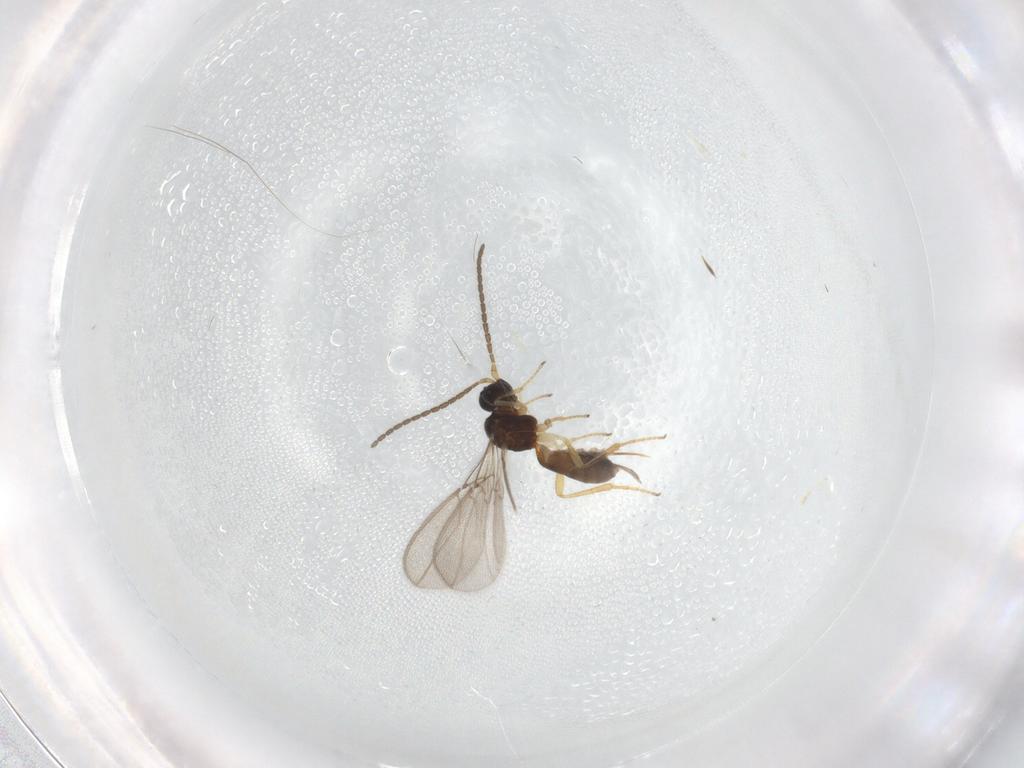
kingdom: Animalia
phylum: Arthropoda
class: Insecta
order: Hymenoptera
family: Braconidae
